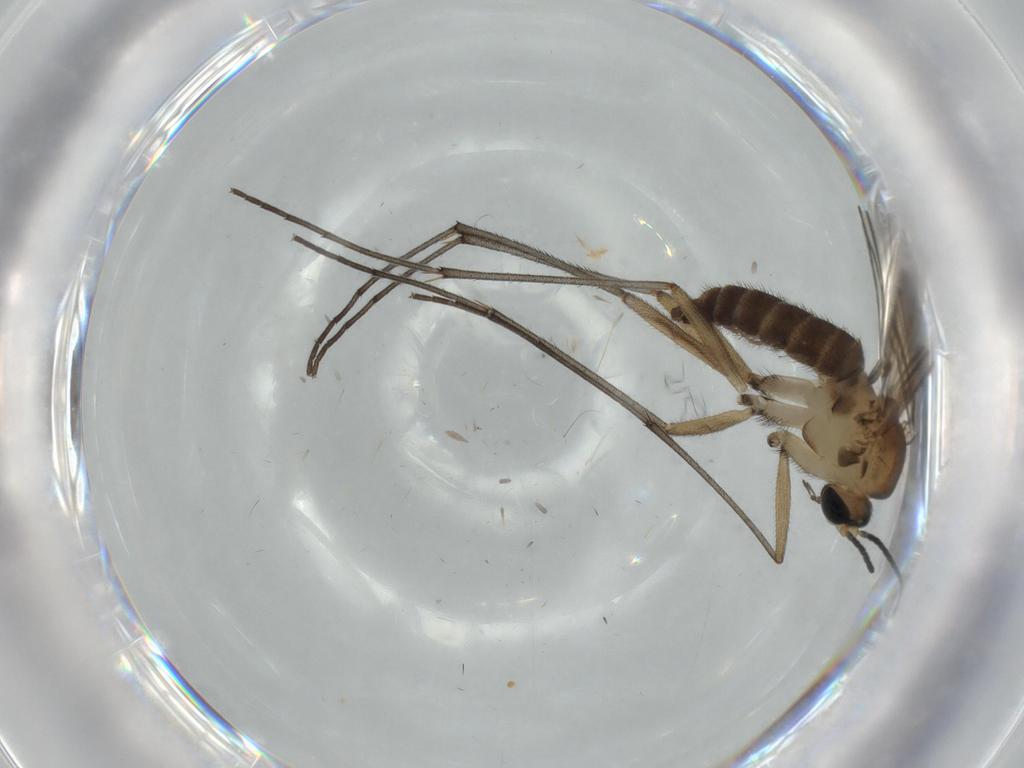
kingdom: Animalia
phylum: Arthropoda
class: Insecta
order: Diptera
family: Sciaridae
